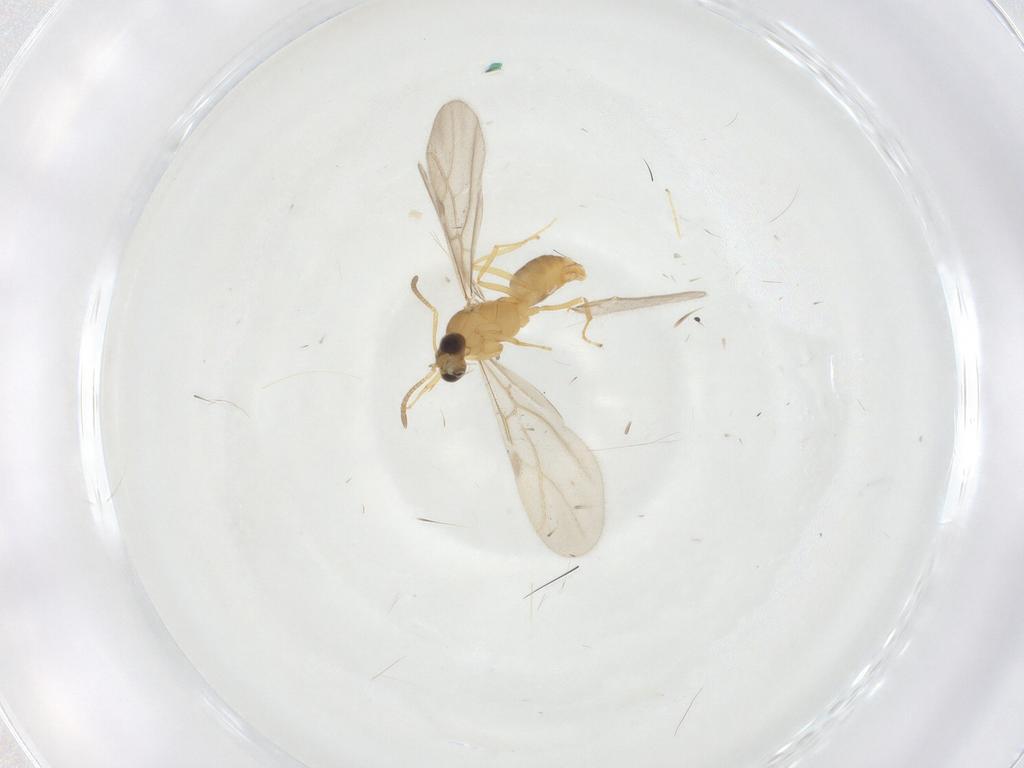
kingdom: Animalia
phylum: Arthropoda
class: Insecta
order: Hymenoptera
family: Formicidae
